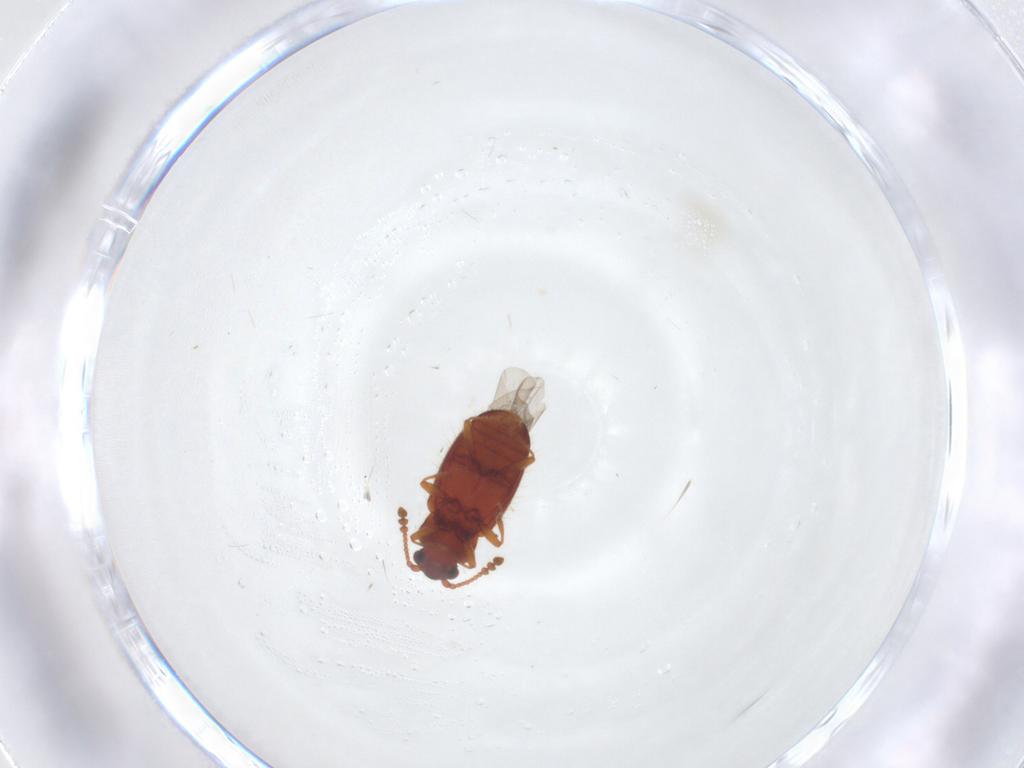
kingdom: Animalia
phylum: Arthropoda
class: Insecta
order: Coleoptera
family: Cryptophagidae
